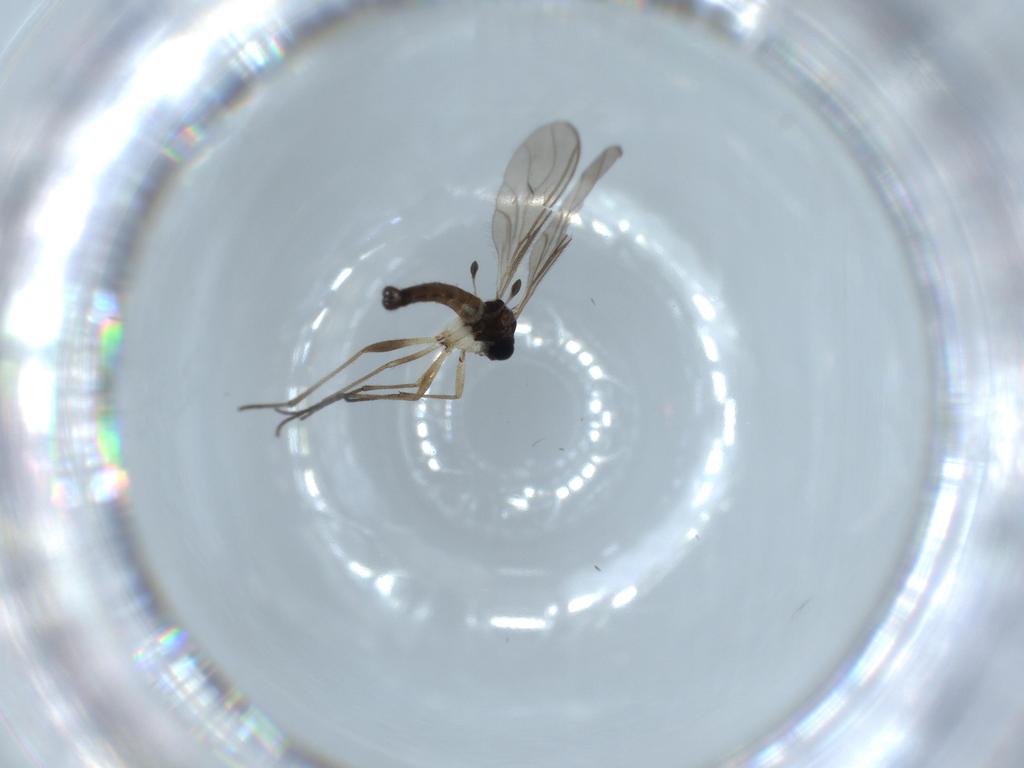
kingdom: Animalia
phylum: Arthropoda
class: Insecta
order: Diptera
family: Sciaridae
